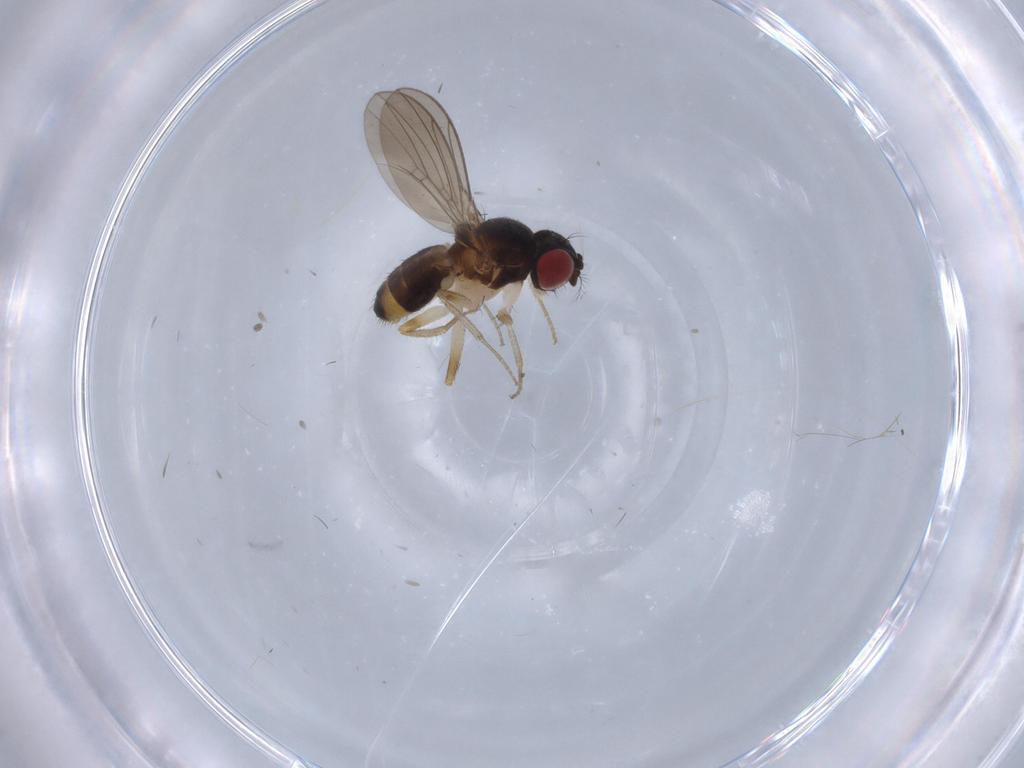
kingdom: Animalia
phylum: Arthropoda
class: Insecta
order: Diptera
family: Drosophilidae
